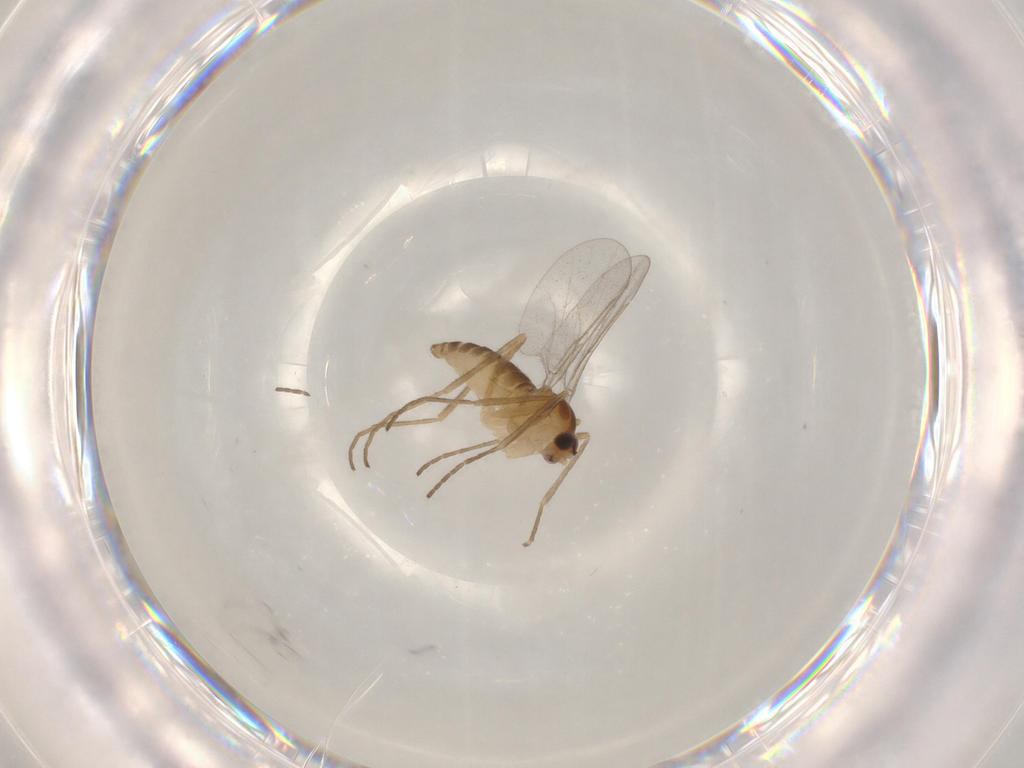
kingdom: Animalia
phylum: Arthropoda
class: Insecta
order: Diptera
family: Cecidomyiidae
